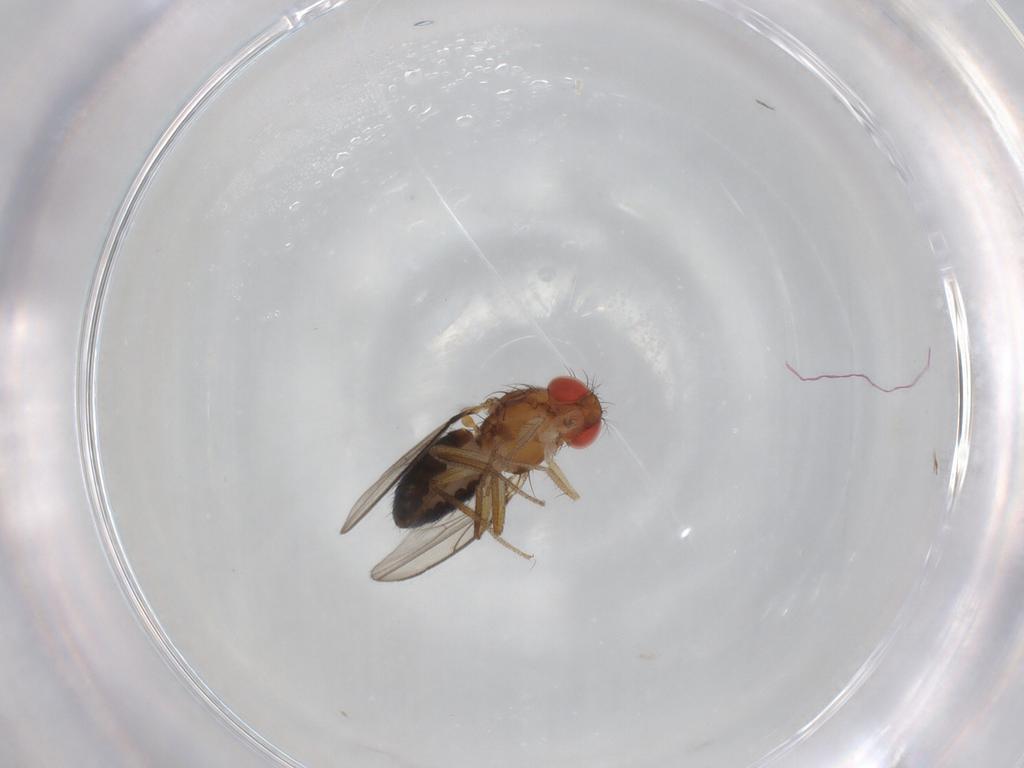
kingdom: Animalia
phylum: Arthropoda
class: Insecta
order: Diptera
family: Drosophilidae
